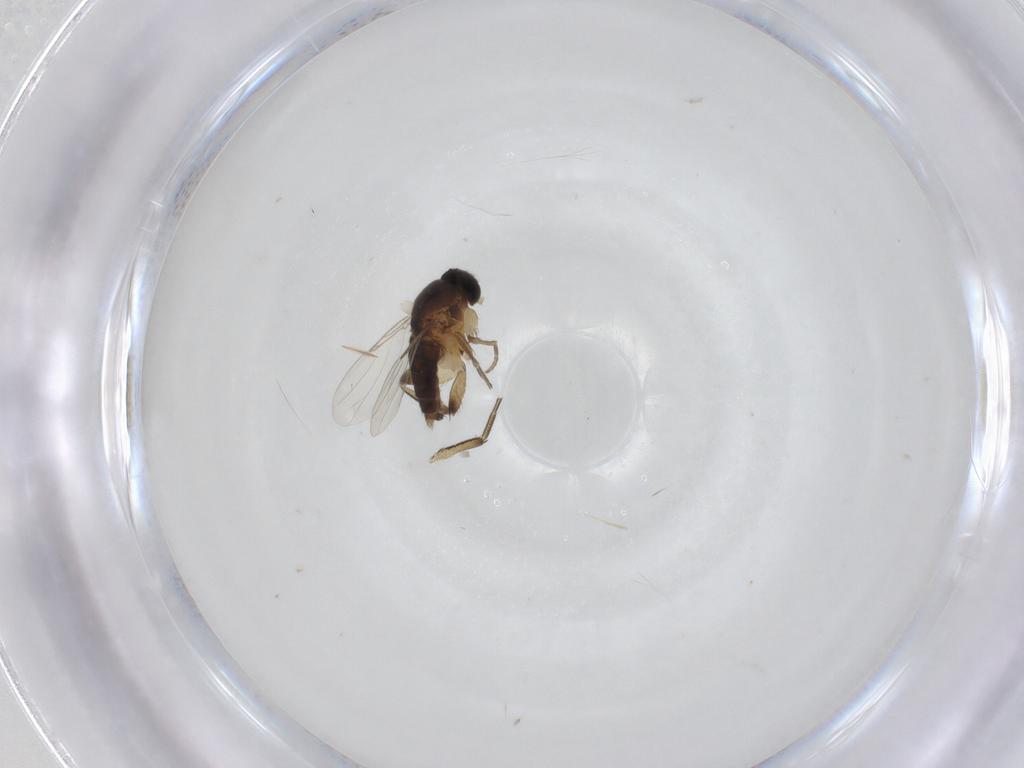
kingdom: Animalia
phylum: Arthropoda
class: Insecta
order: Diptera
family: Phoridae
